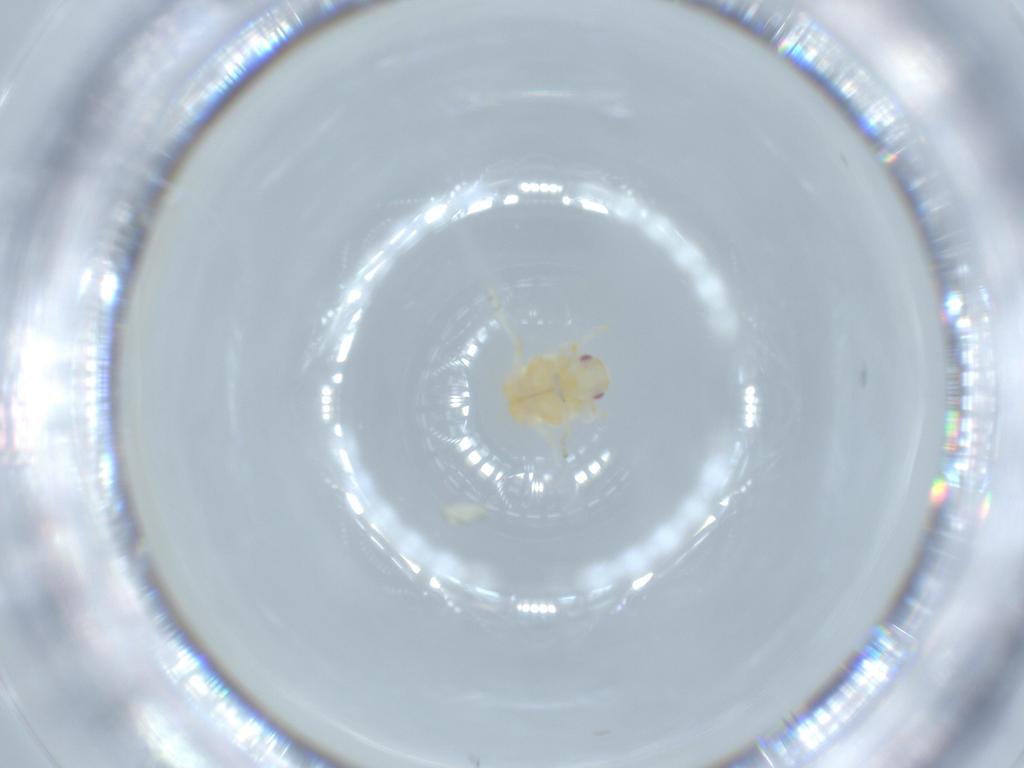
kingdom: Animalia
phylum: Arthropoda
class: Insecta
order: Hemiptera
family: Flatidae
